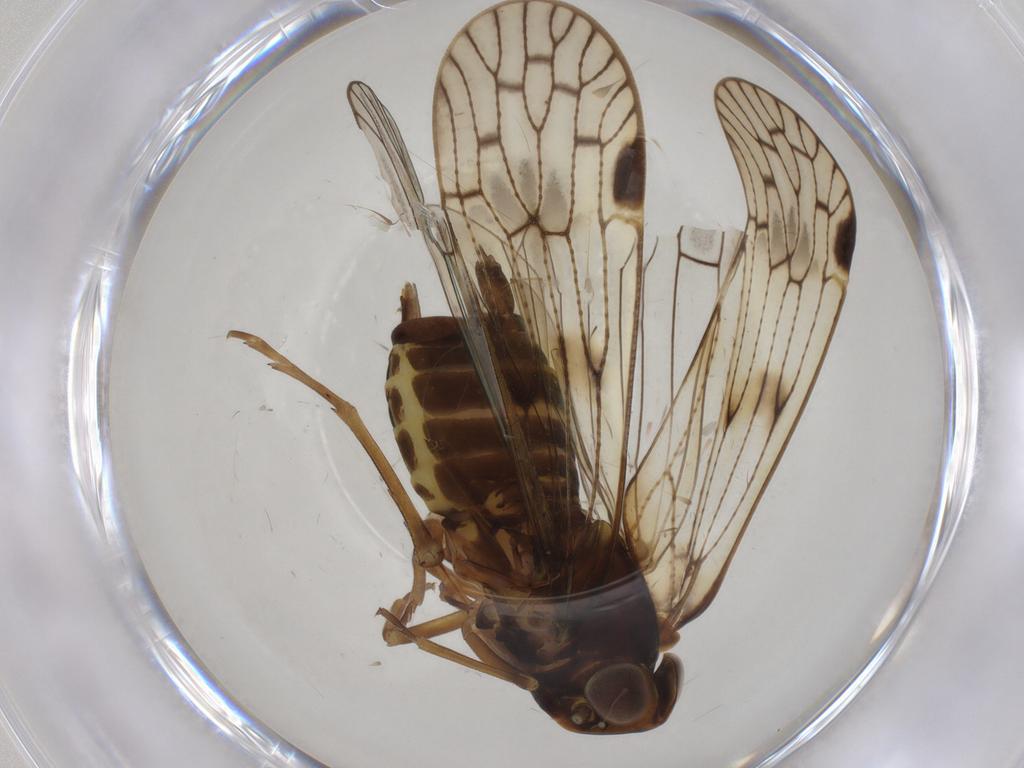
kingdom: Animalia
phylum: Arthropoda
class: Insecta
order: Hemiptera
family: Cixiidae
